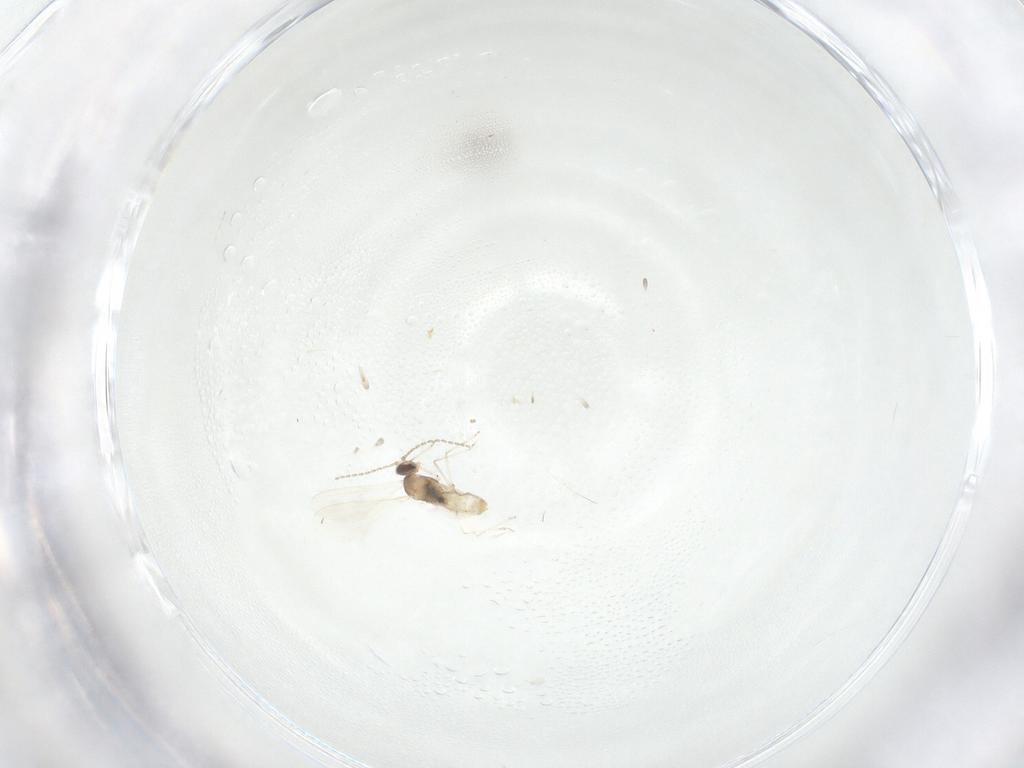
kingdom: Animalia
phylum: Arthropoda
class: Insecta
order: Diptera
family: Cecidomyiidae
